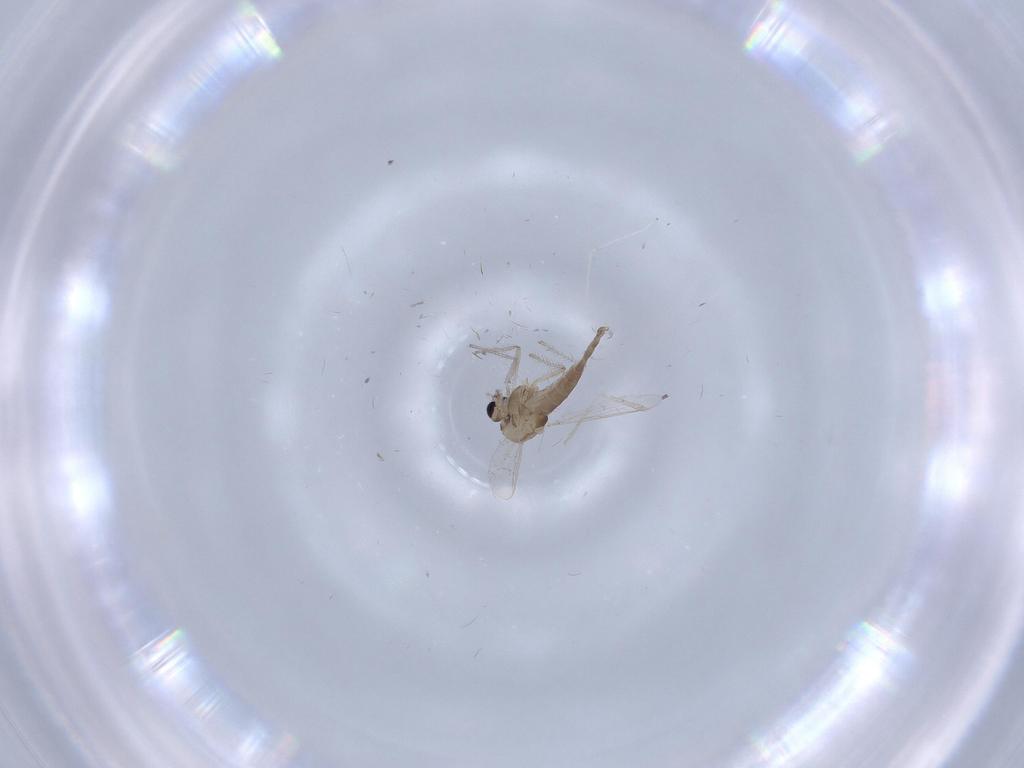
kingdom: Animalia
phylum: Arthropoda
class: Insecta
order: Diptera
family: Chironomidae
